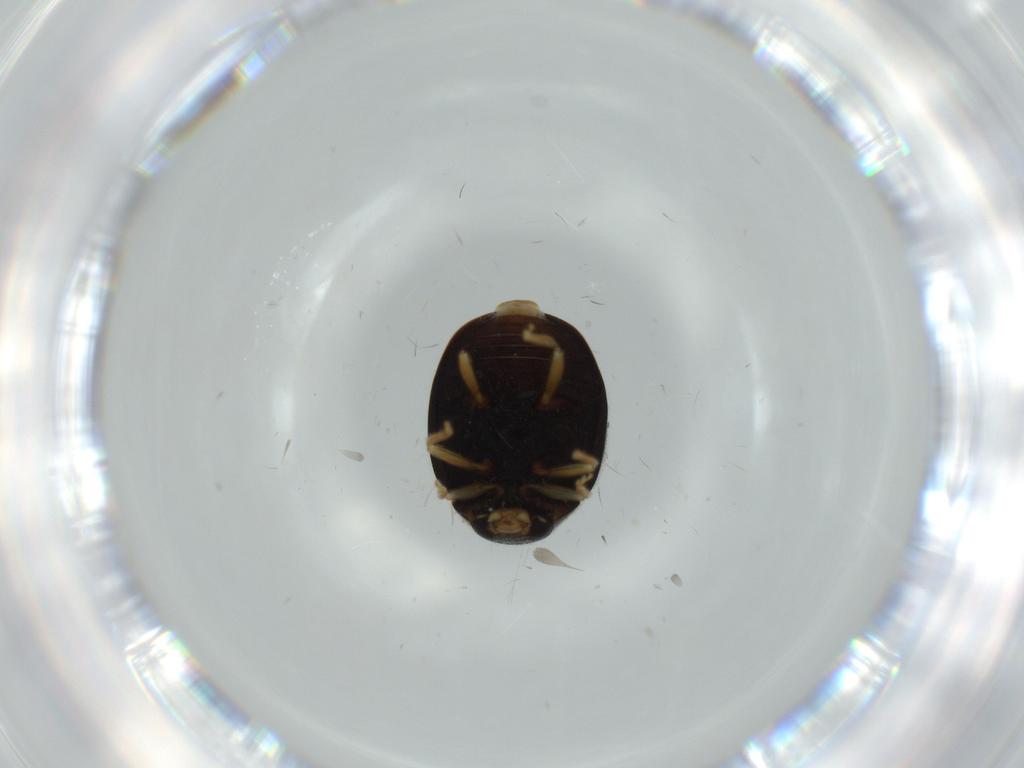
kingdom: Animalia
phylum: Arthropoda
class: Insecta
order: Coleoptera
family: Coccinellidae
